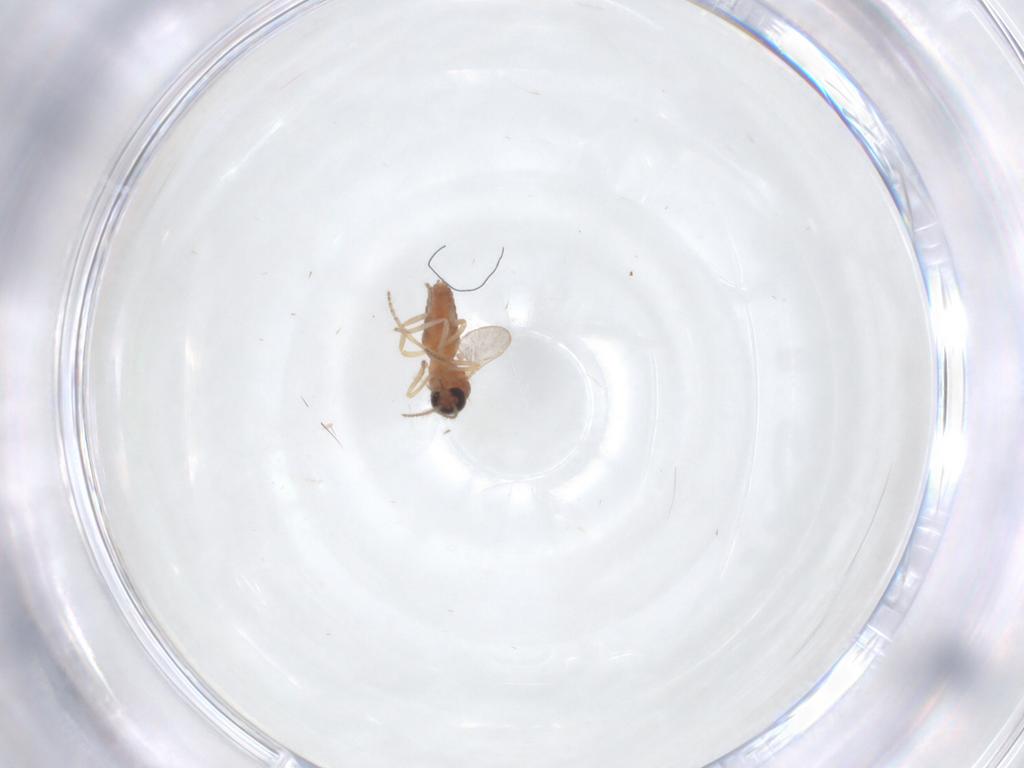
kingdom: Animalia
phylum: Arthropoda
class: Insecta
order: Diptera
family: Ceratopogonidae
